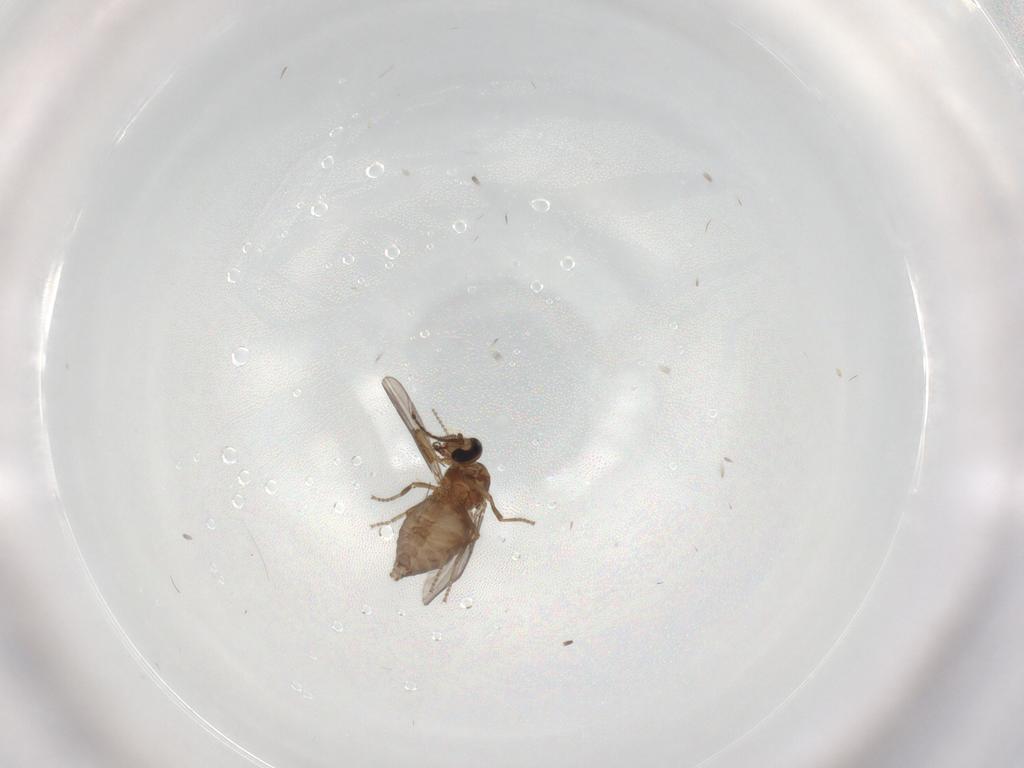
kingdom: Animalia
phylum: Arthropoda
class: Insecta
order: Diptera
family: Ceratopogonidae
